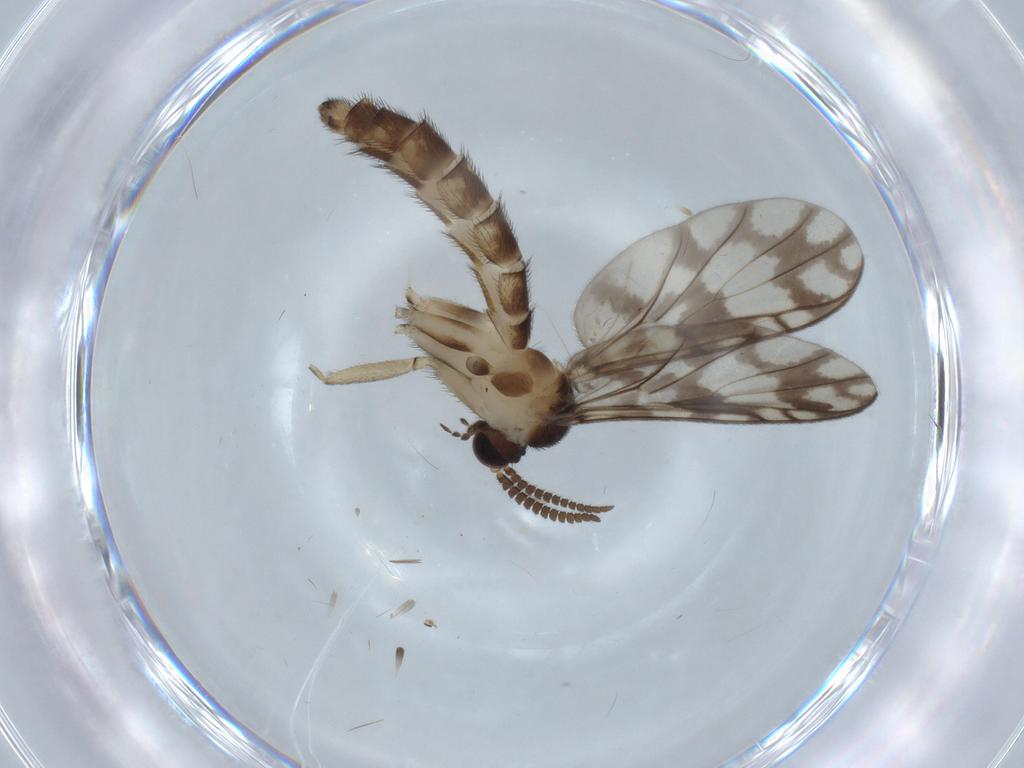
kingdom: Animalia
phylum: Arthropoda
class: Insecta
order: Diptera
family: Cecidomyiidae
